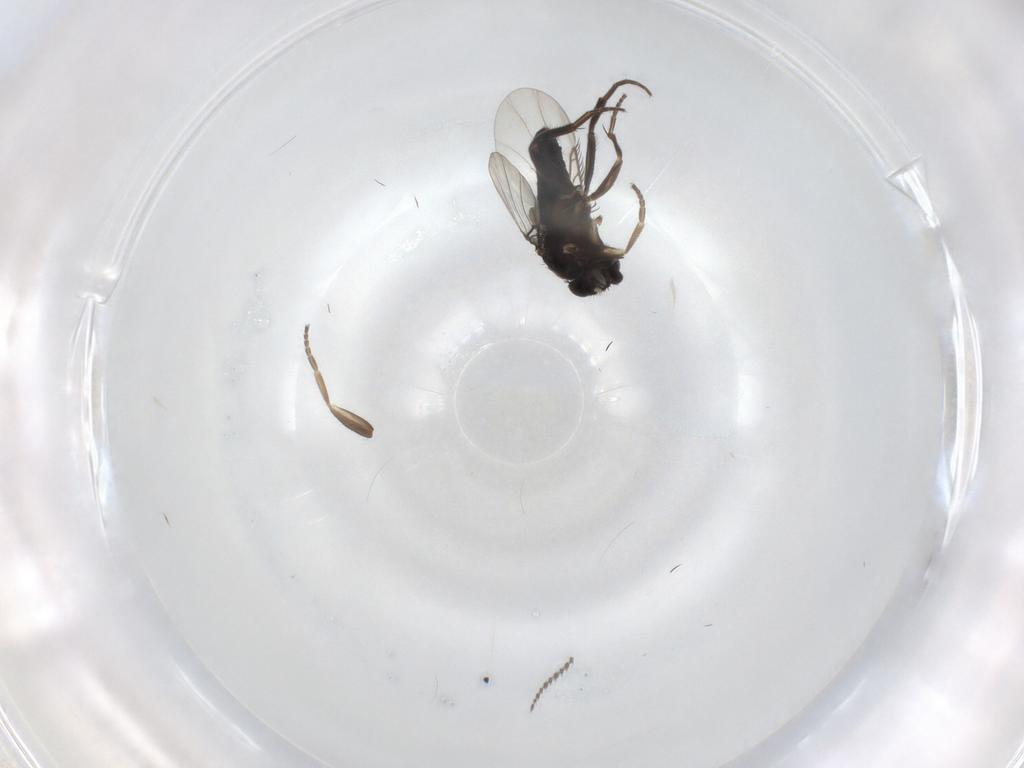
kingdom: Animalia
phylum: Arthropoda
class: Insecta
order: Diptera
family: Phoridae
